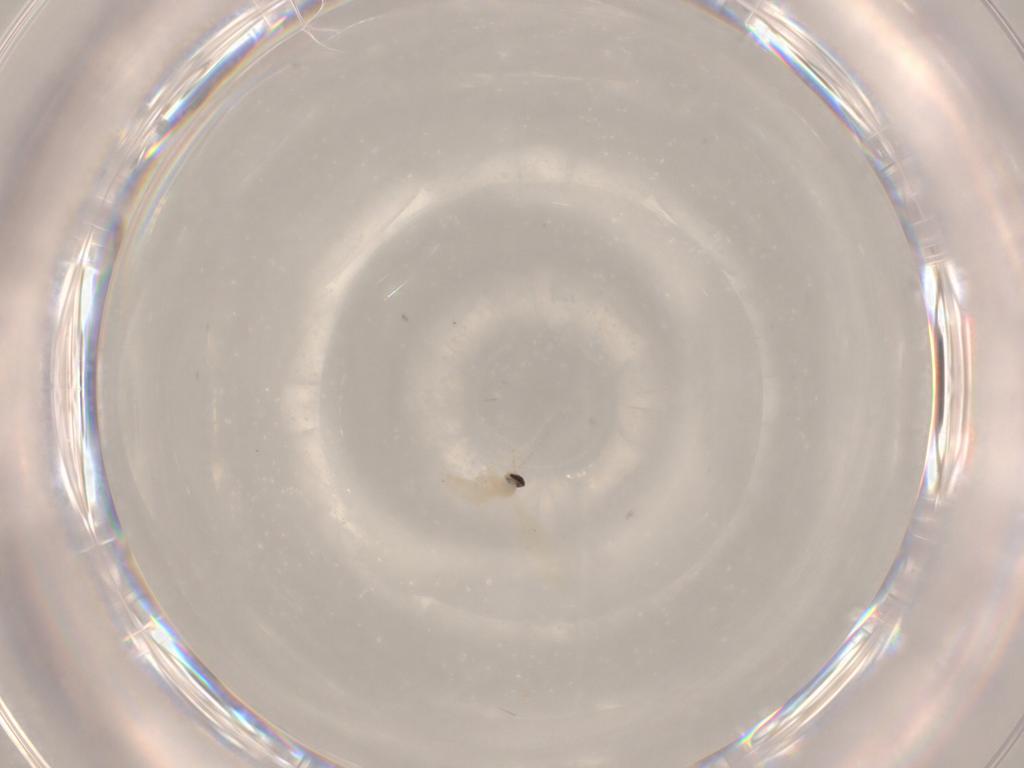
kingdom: Animalia
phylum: Arthropoda
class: Insecta
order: Diptera
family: Cecidomyiidae
